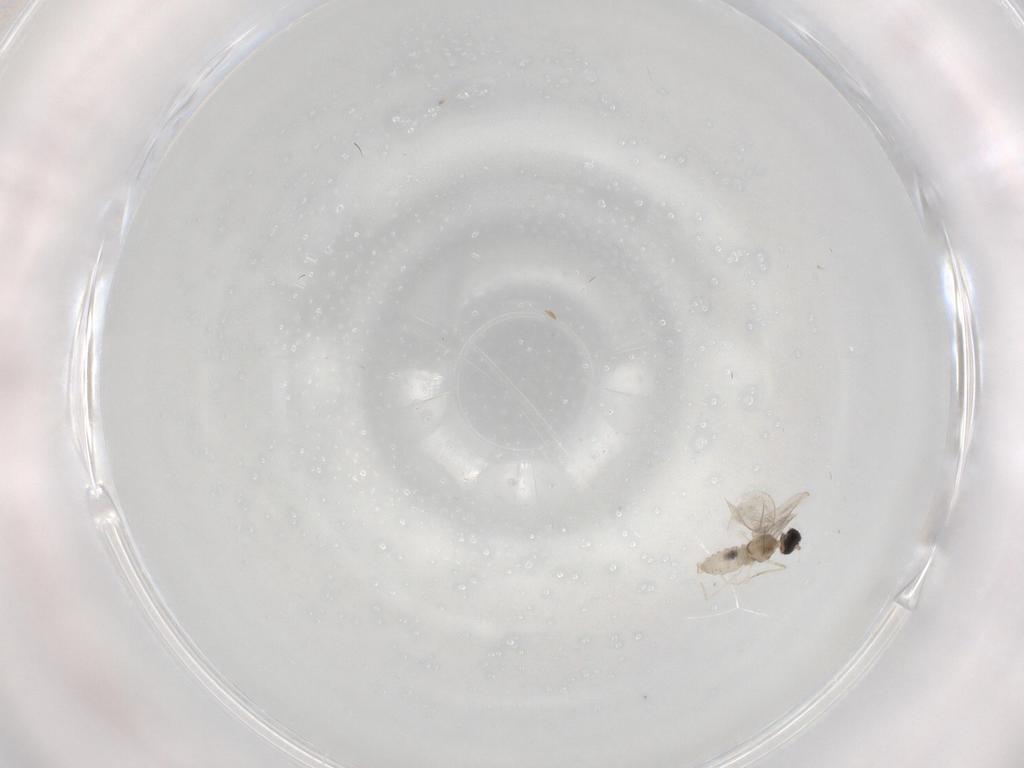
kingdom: Animalia
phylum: Arthropoda
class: Insecta
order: Diptera
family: Cecidomyiidae
